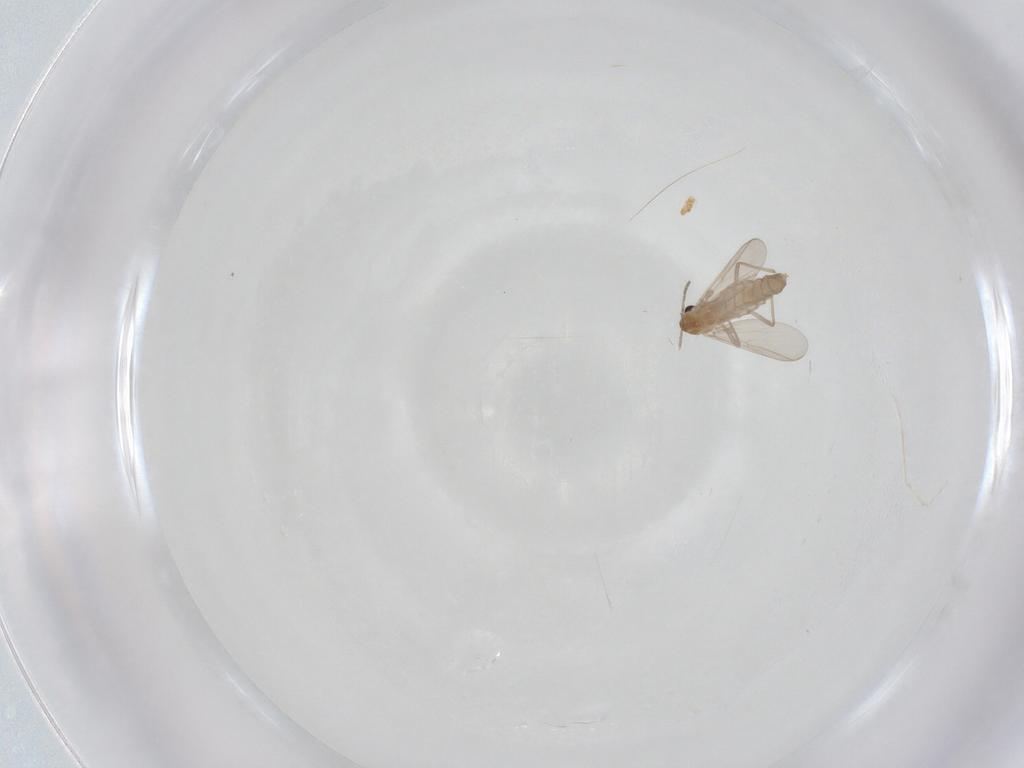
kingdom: Animalia
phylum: Arthropoda
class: Insecta
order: Diptera
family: Chironomidae
